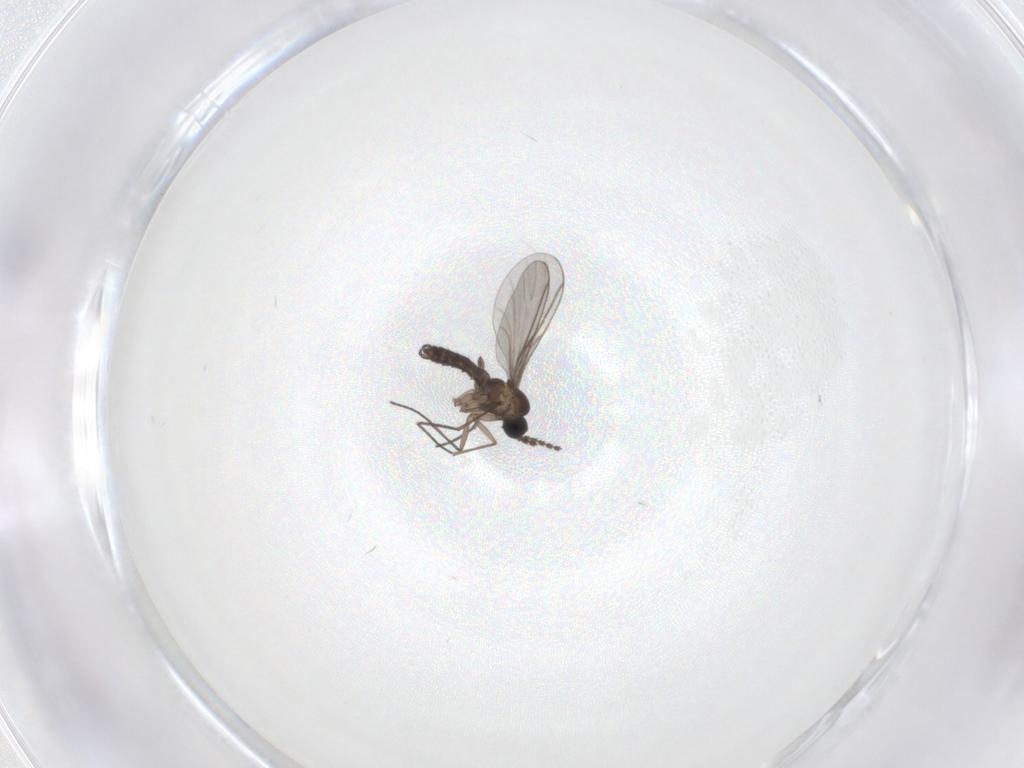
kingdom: Animalia
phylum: Arthropoda
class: Insecta
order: Diptera
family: Sciaridae
